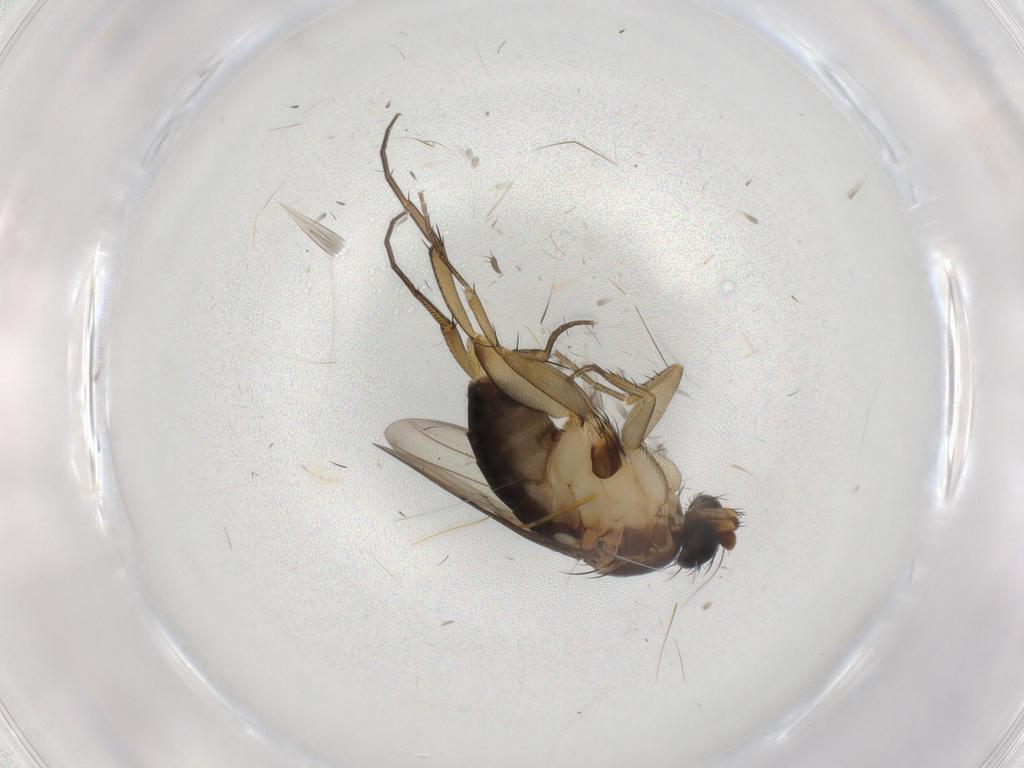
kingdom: Animalia
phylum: Arthropoda
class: Insecta
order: Diptera
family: Phoridae
